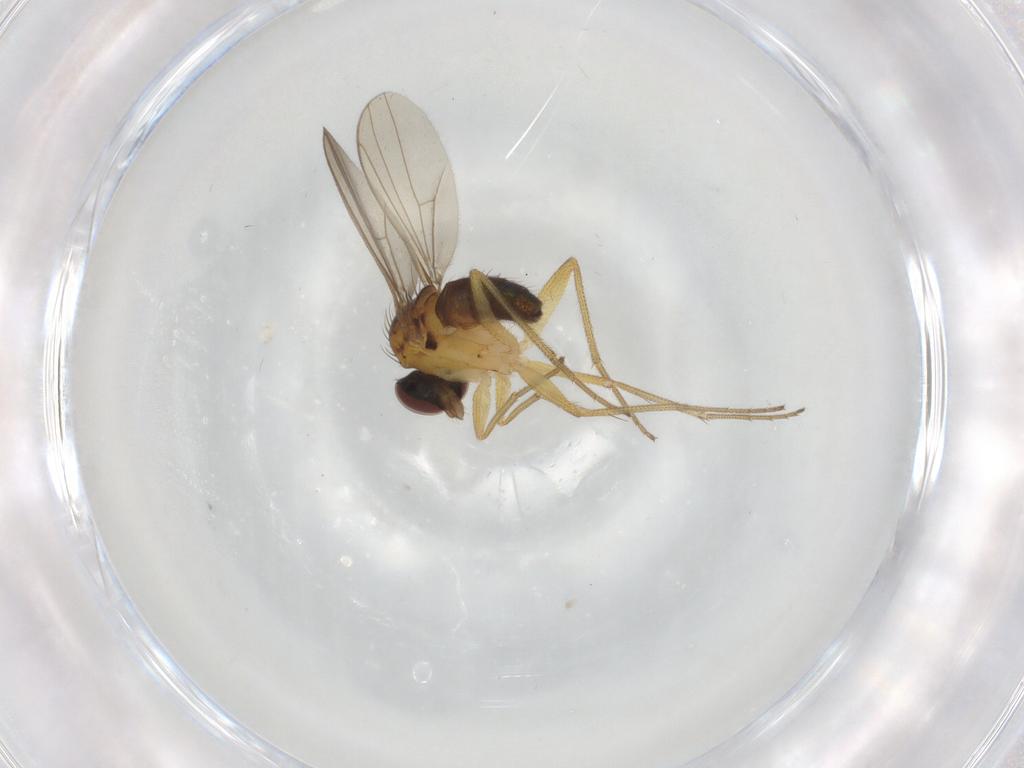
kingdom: Animalia
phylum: Arthropoda
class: Insecta
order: Diptera
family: Dolichopodidae
